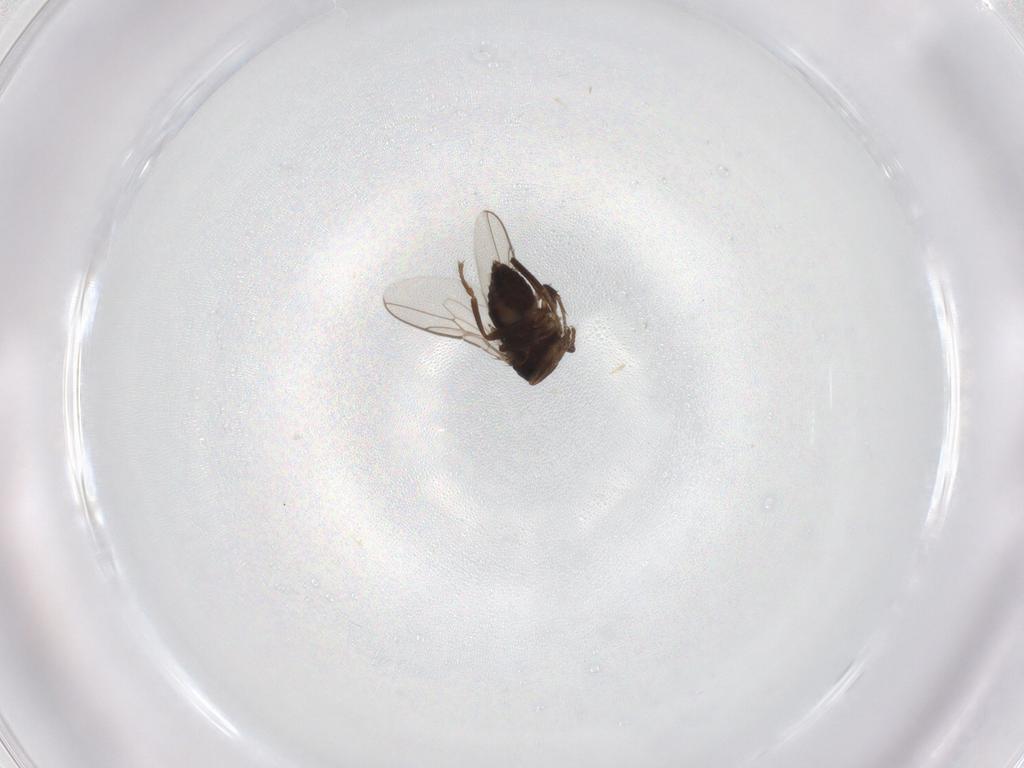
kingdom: Animalia
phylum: Arthropoda
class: Insecta
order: Diptera
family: Sphaeroceridae
